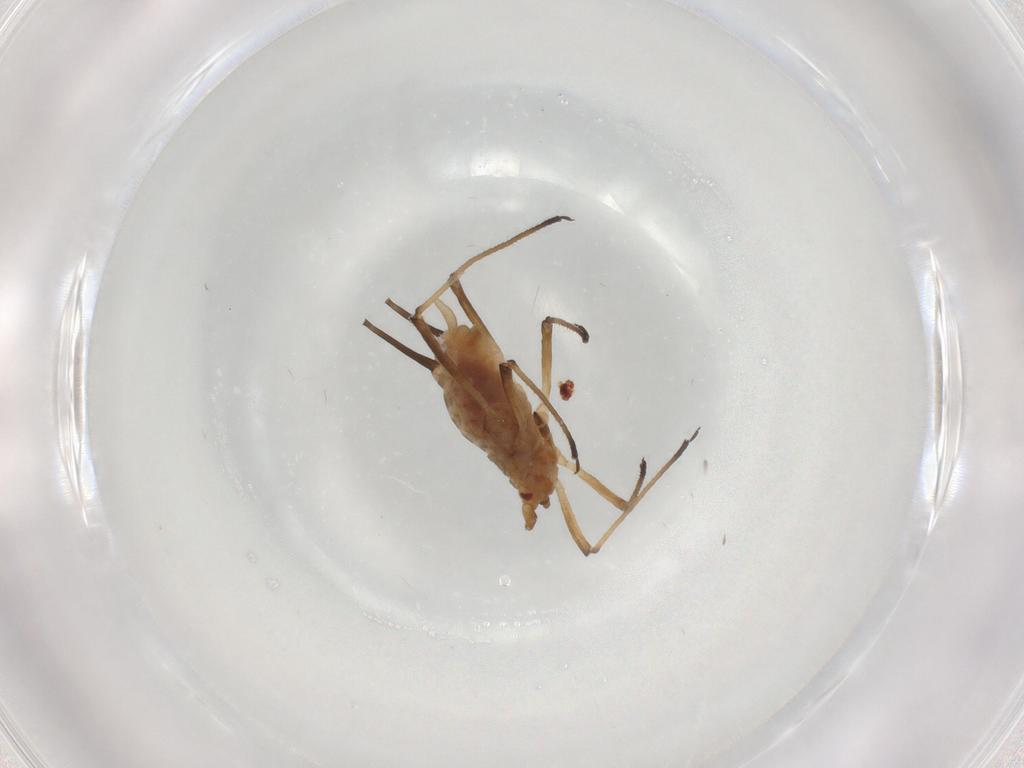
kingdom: Animalia
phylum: Arthropoda
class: Insecta
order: Hemiptera
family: Aphididae
